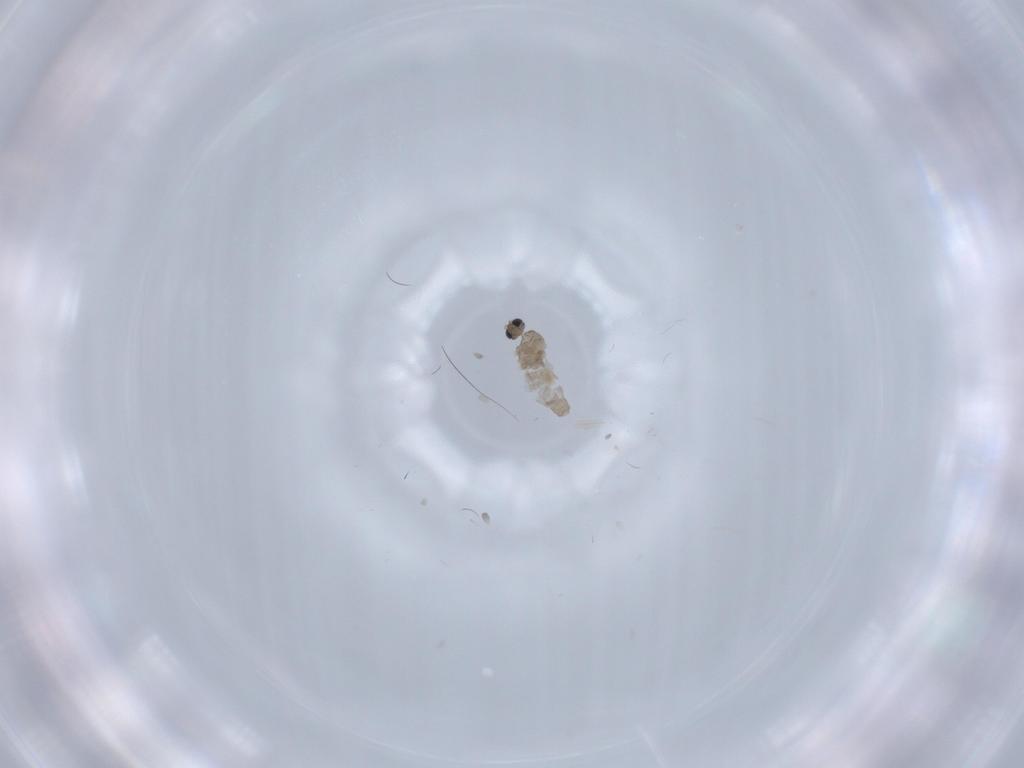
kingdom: Animalia
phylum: Arthropoda
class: Insecta
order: Diptera
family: Cecidomyiidae
